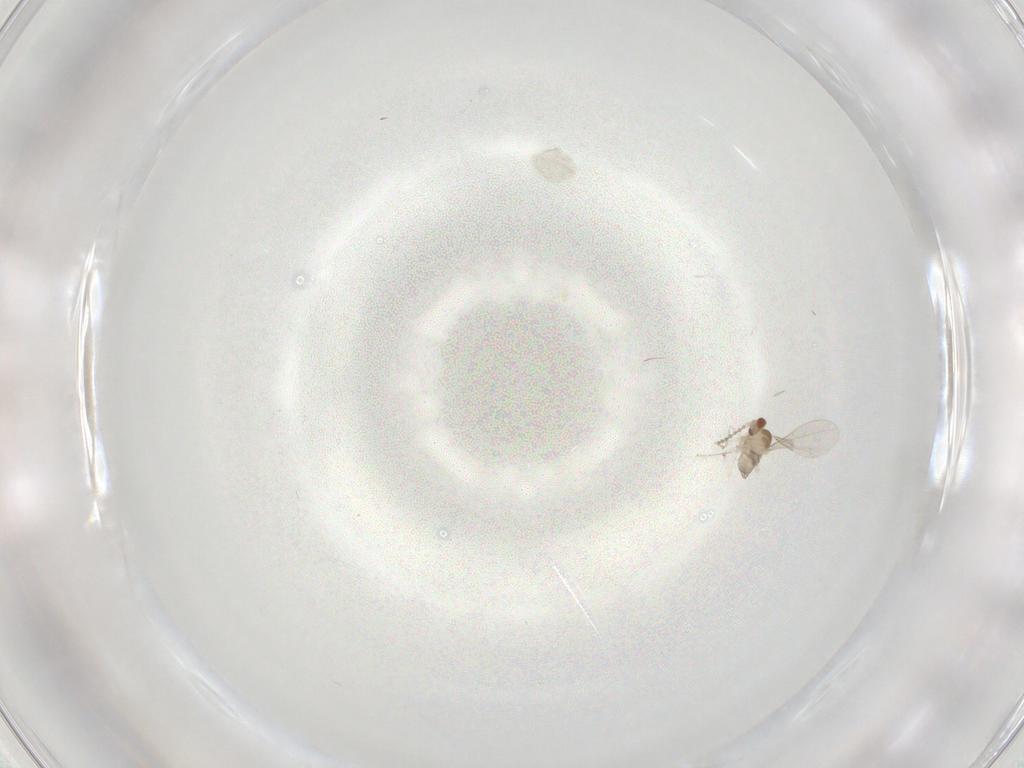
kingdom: Animalia
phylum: Arthropoda
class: Insecta
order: Diptera
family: Cecidomyiidae
